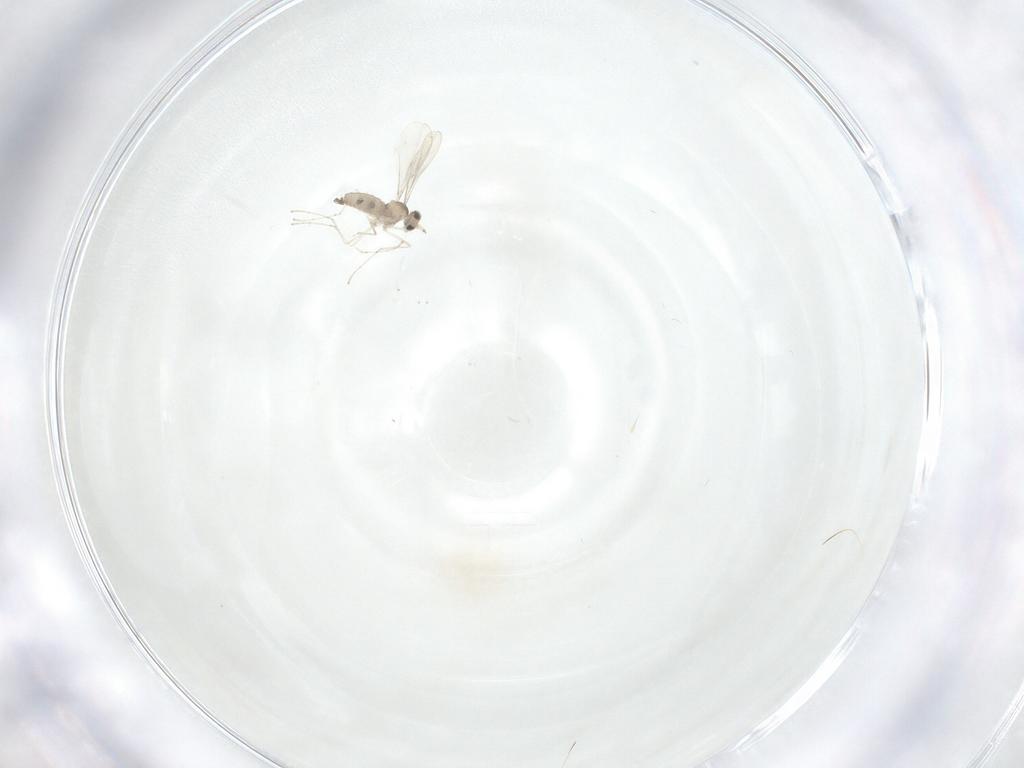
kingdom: Animalia
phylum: Arthropoda
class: Insecta
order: Diptera
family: Cecidomyiidae
